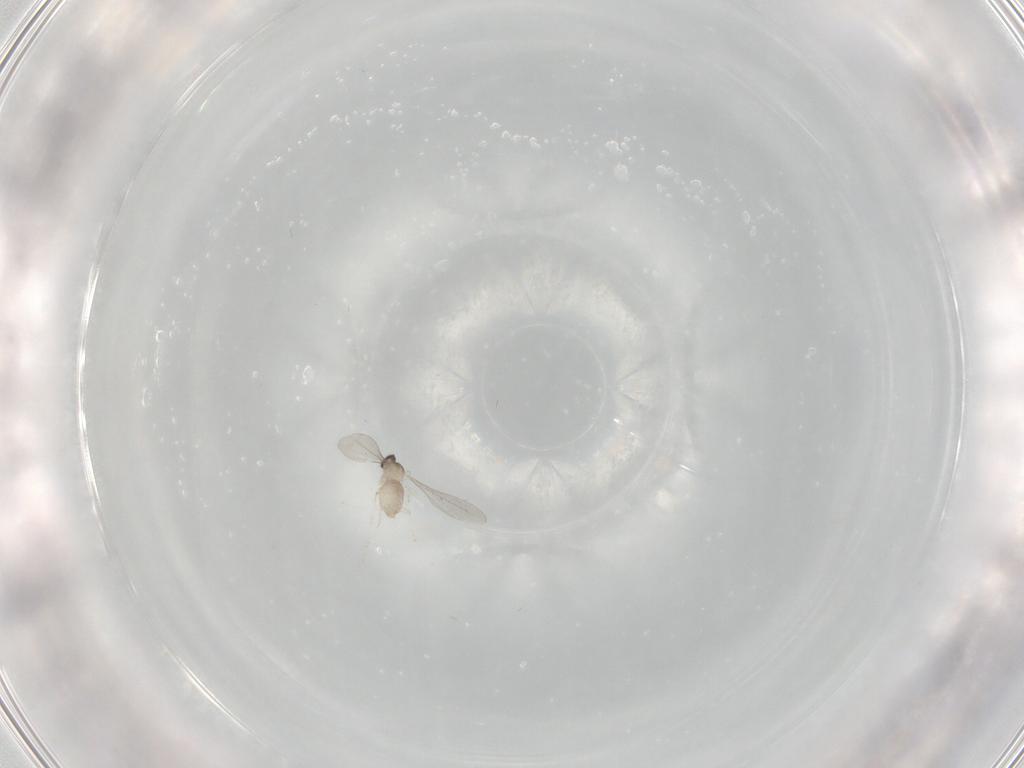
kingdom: Animalia
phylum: Arthropoda
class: Insecta
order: Diptera
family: Cecidomyiidae
